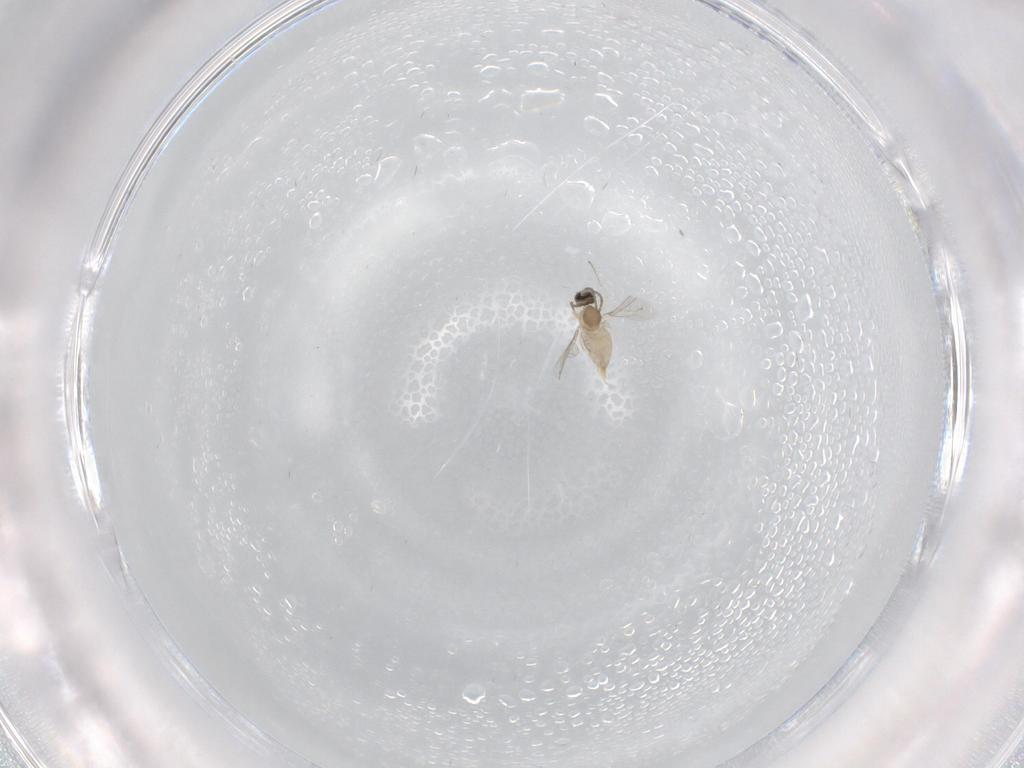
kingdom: Animalia
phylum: Arthropoda
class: Insecta
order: Diptera
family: Cecidomyiidae
